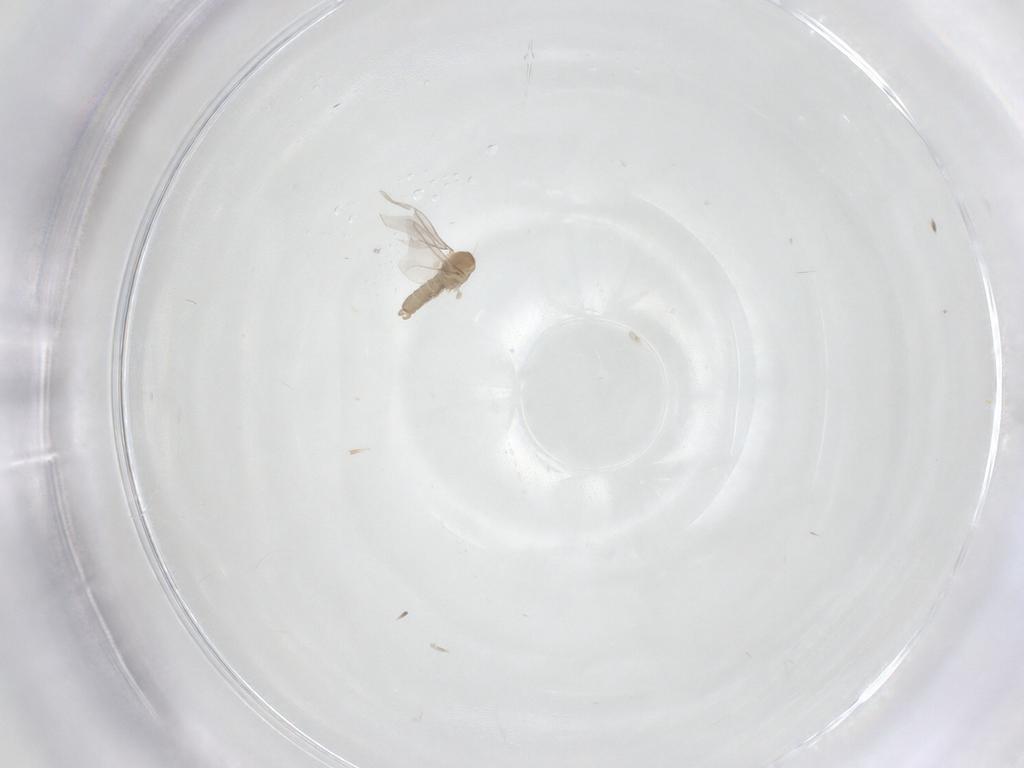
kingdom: Animalia
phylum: Arthropoda
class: Insecta
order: Diptera
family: Cecidomyiidae
